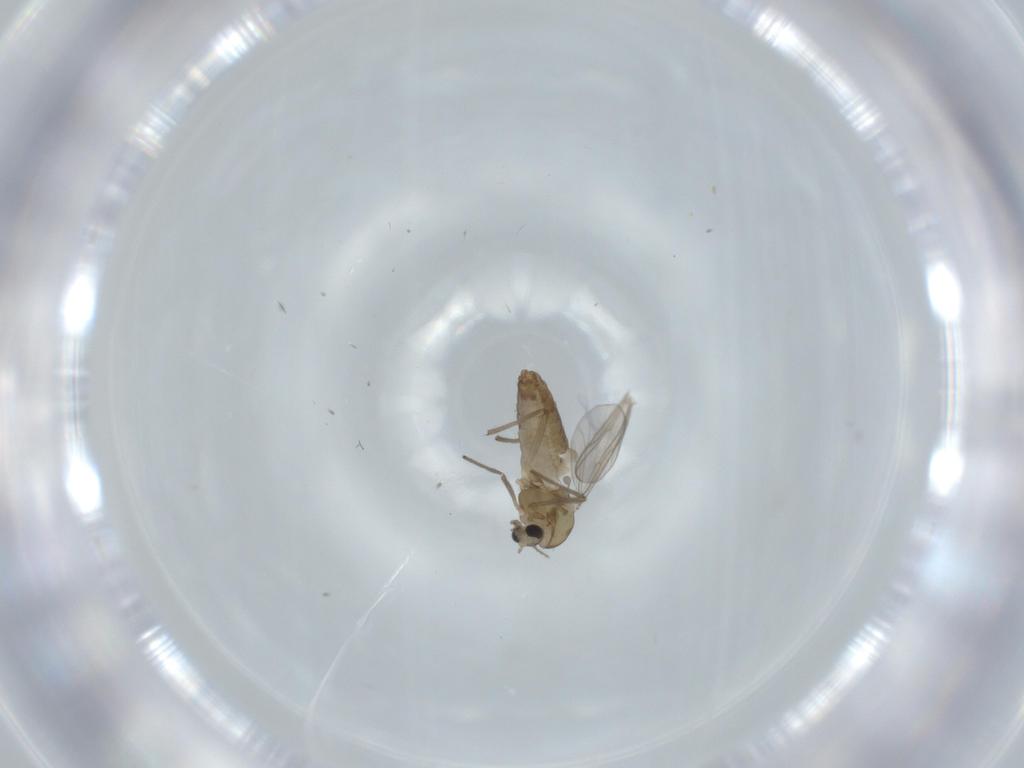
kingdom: Animalia
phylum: Arthropoda
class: Insecta
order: Diptera
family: Chironomidae
